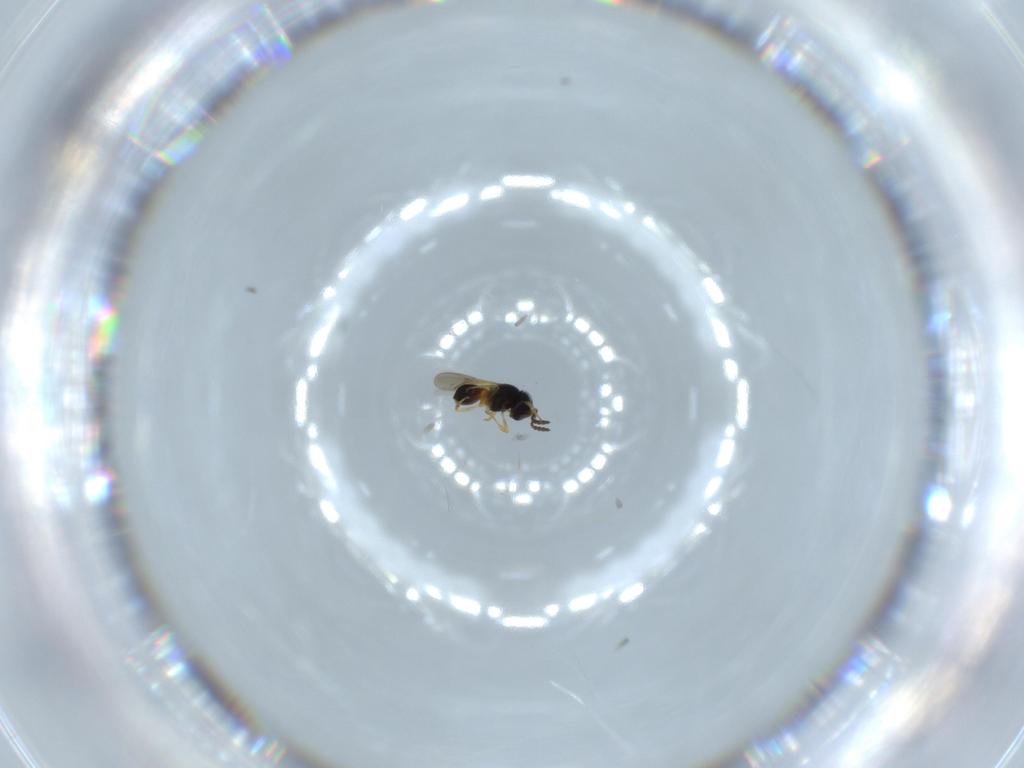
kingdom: Animalia
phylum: Arthropoda
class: Insecta
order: Hymenoptera
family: Scelionidae
